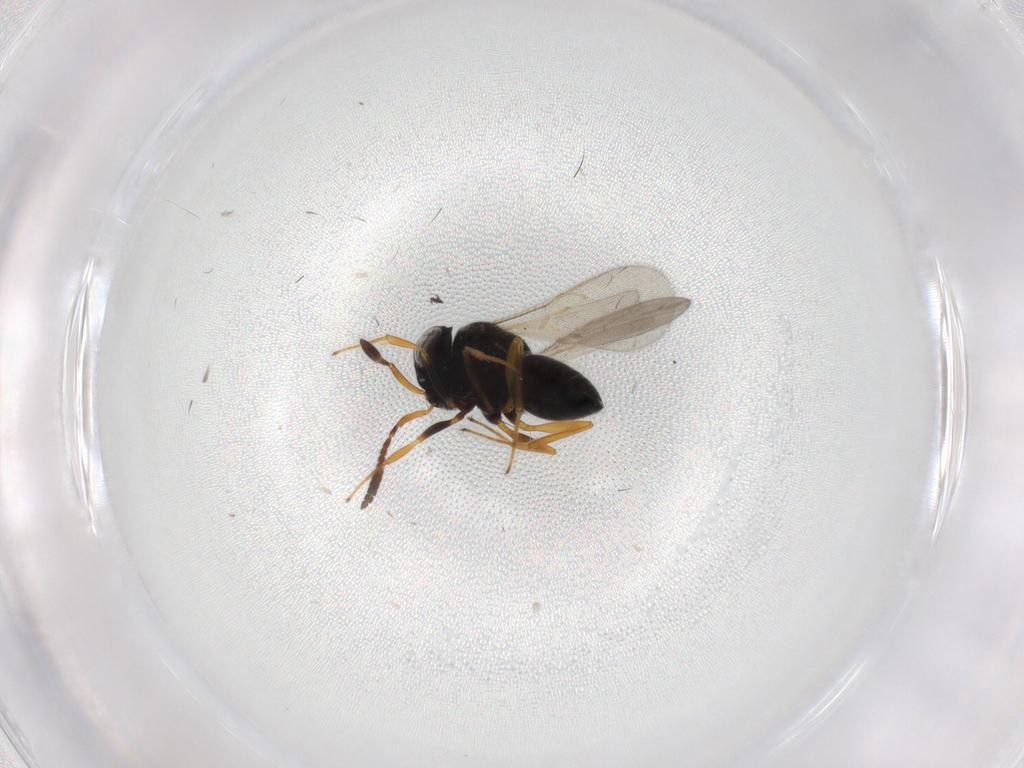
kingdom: Animalia
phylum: Arthropoda
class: Insecta
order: Hymenoptera
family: Scelionidae
